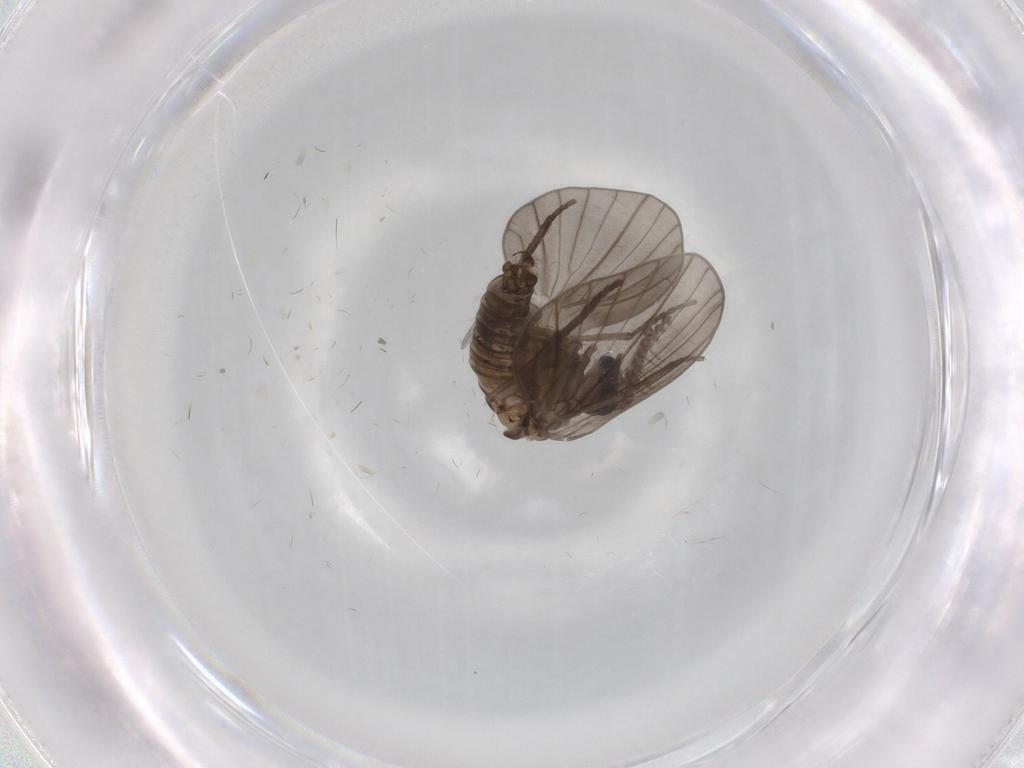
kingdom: Animalia
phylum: Arthropoda
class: Insecta
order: Diptera
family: Psychodidae
